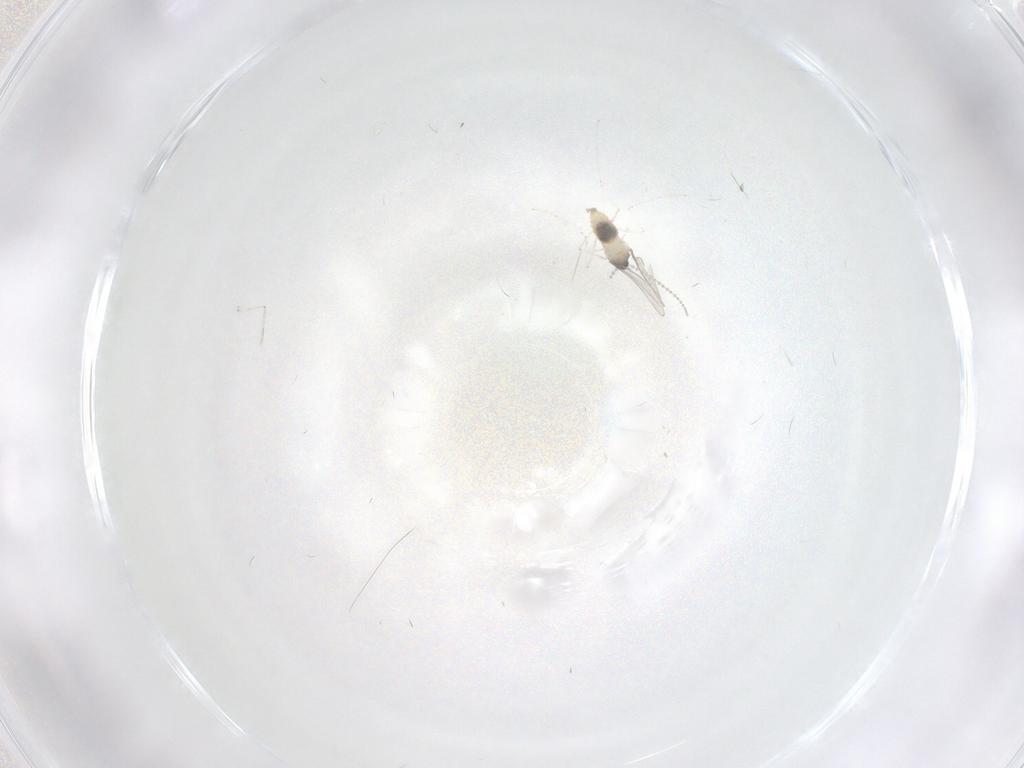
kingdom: Animalia
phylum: Arthropoda
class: Insecta
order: Diptera
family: Cecidomyiidae
